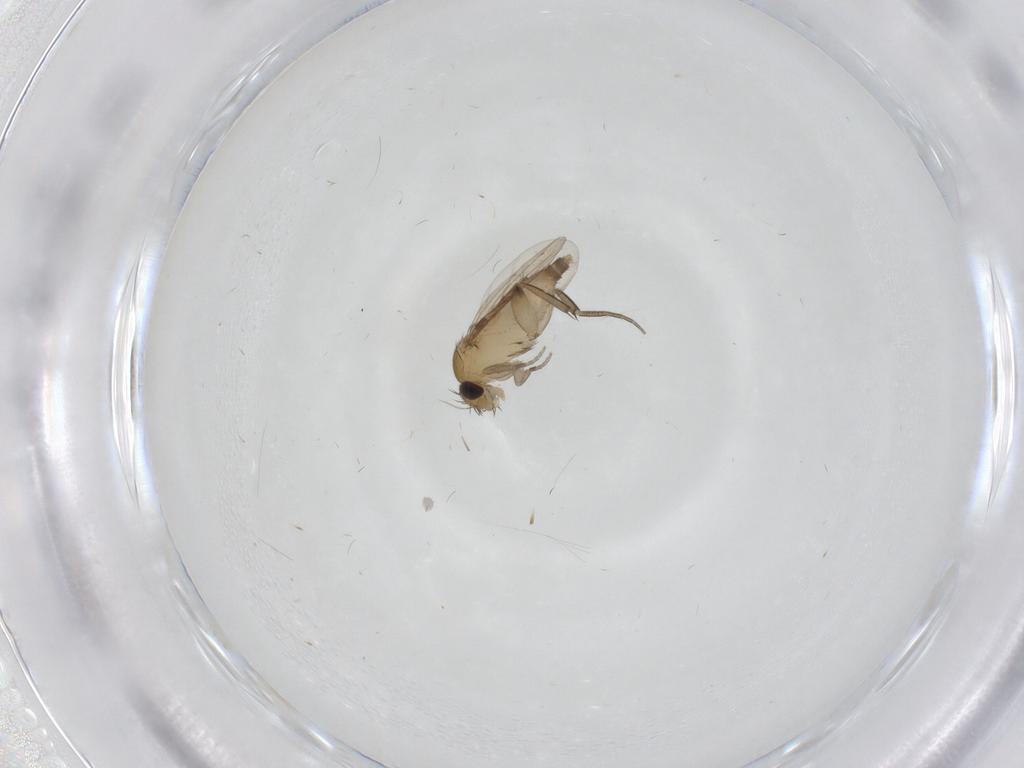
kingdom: Animalia
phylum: Arthropoda
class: Insecta
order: Diptera
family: Phoridae
